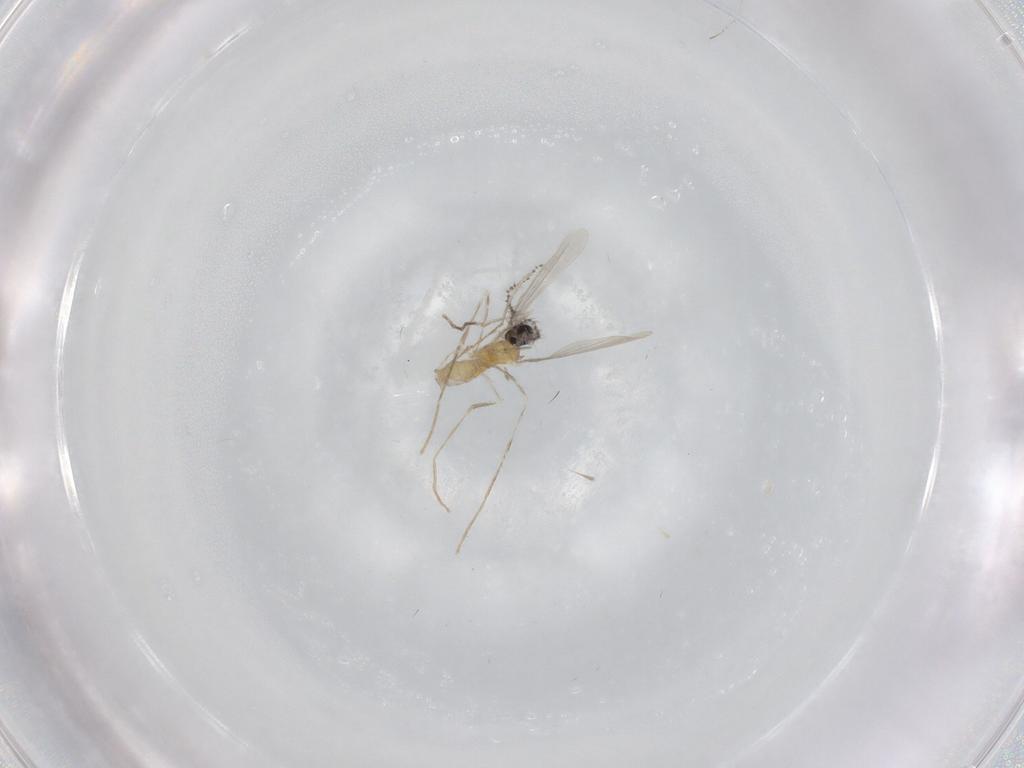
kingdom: Animalia
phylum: Arthropoda
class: Insecta
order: Diptera
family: Cecidomyiidae
